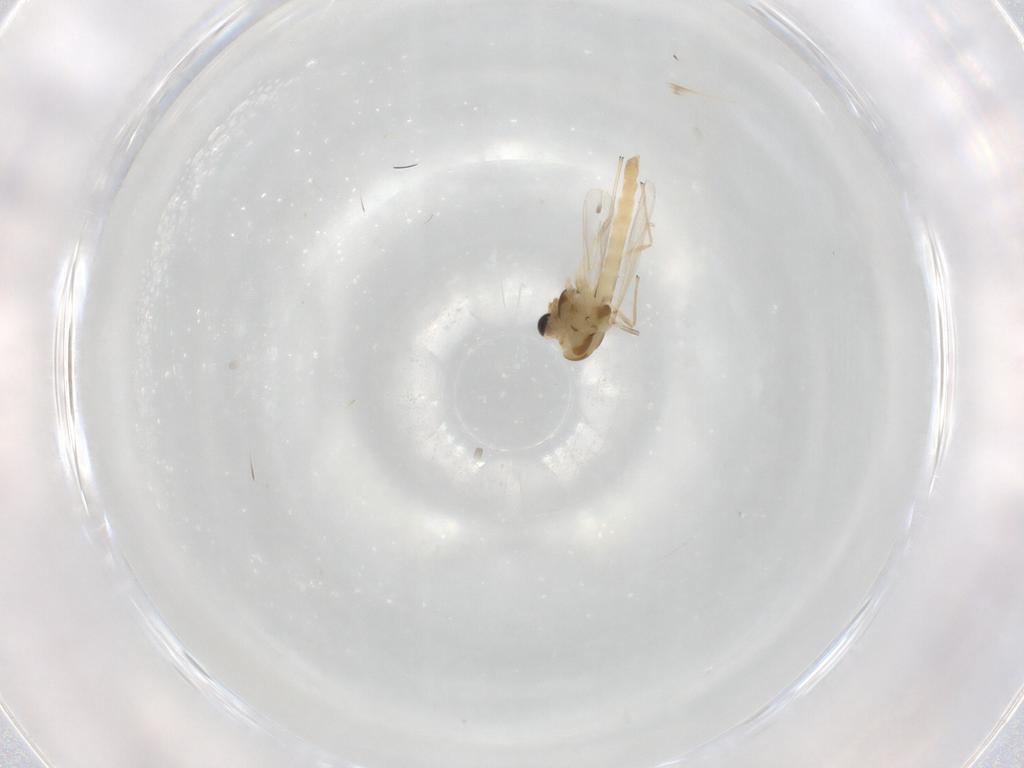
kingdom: Animalia
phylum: Arthropoda
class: Insecta
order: Diptera
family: Chironomidae
